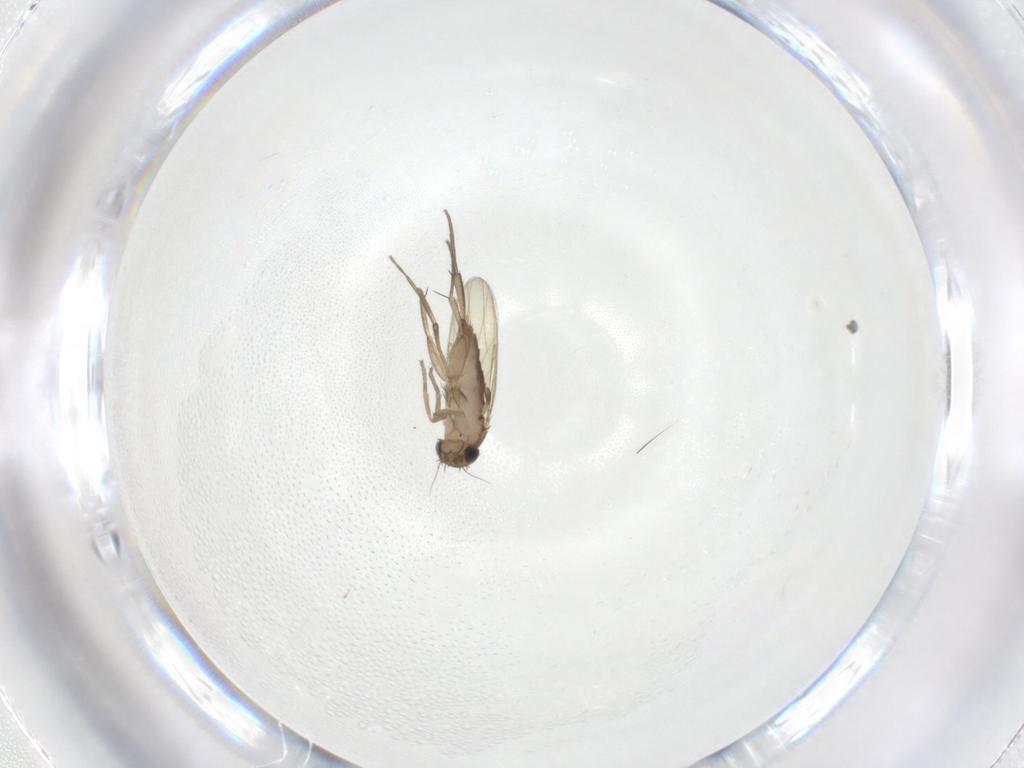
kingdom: Animalia
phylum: Arthropoda
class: Insecta
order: Diptera
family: Phoridae
